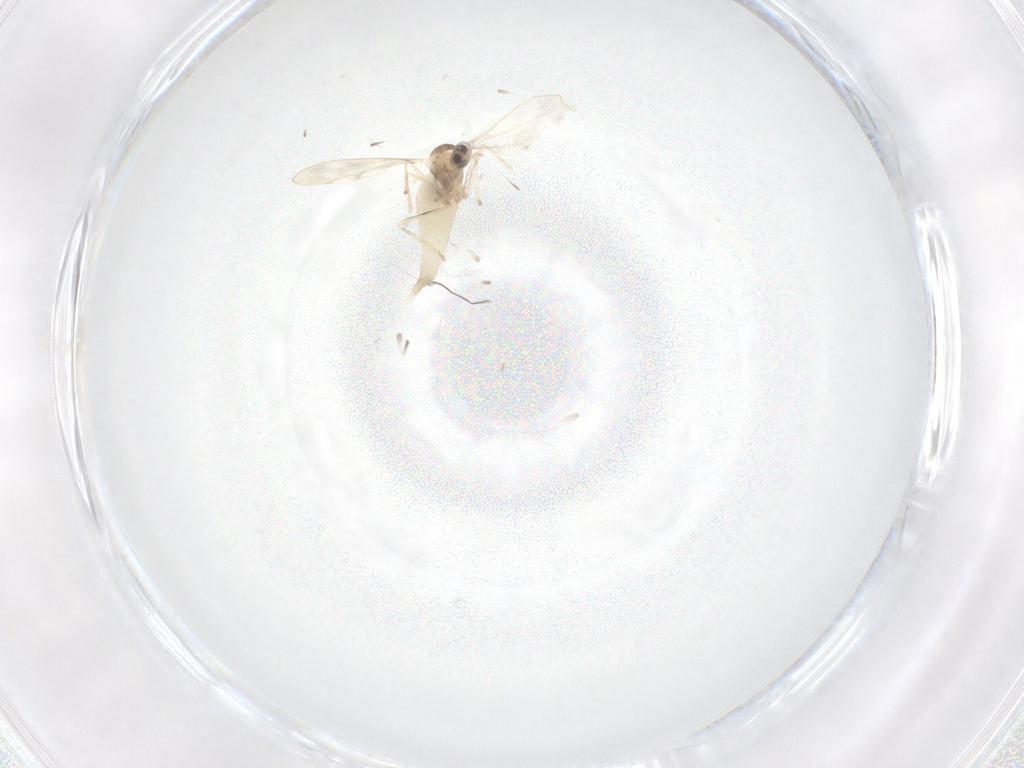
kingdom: Animalia
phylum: Arthropoda
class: Insecta
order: Diptera
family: Cecidomyiidae
